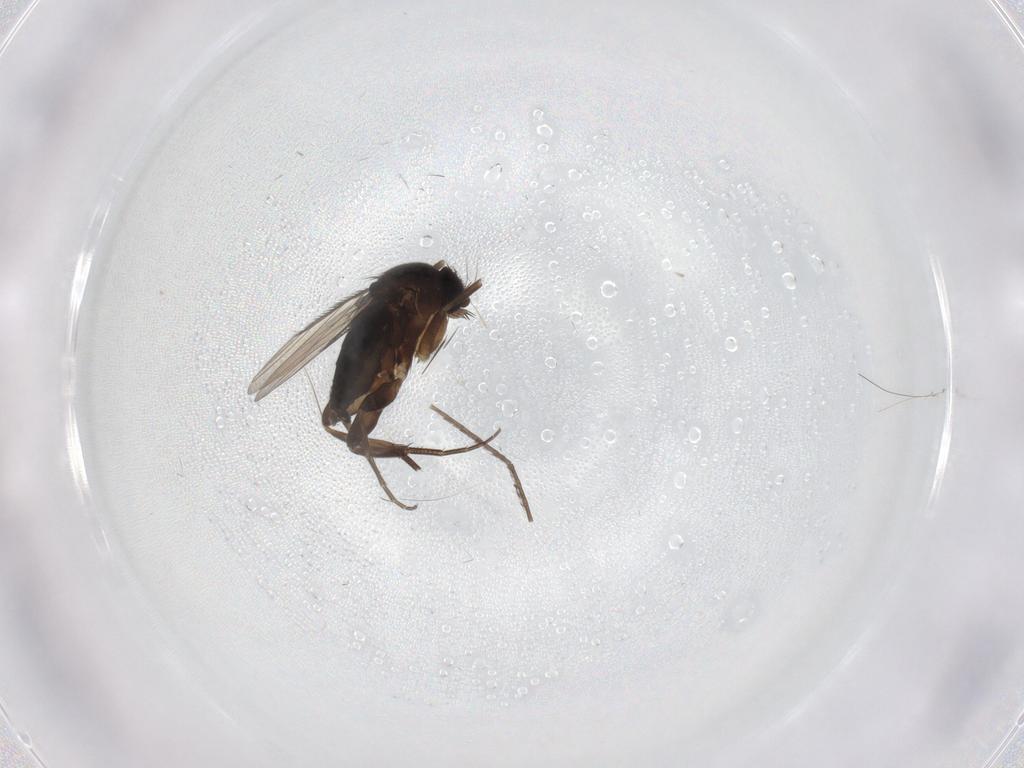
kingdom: Animalia
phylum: Arthropoda
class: Insecta
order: Diptera
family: Phoridae
